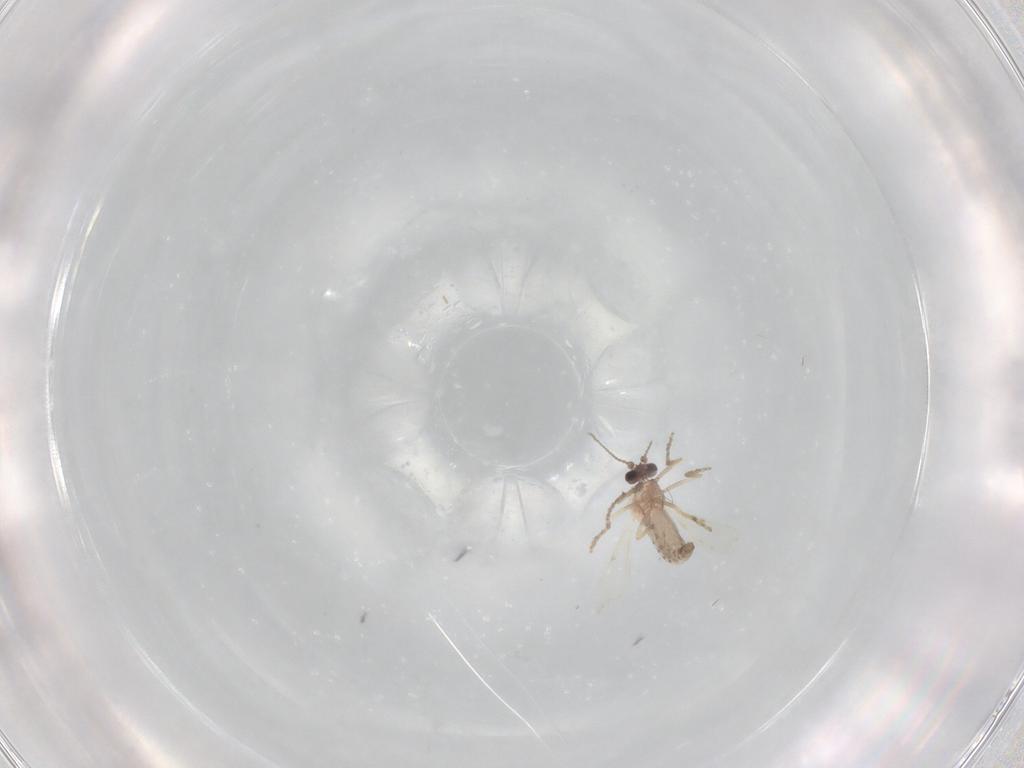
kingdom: Animalia
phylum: Arthropoda
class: Insecta
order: Diptera
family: Chironomidae
